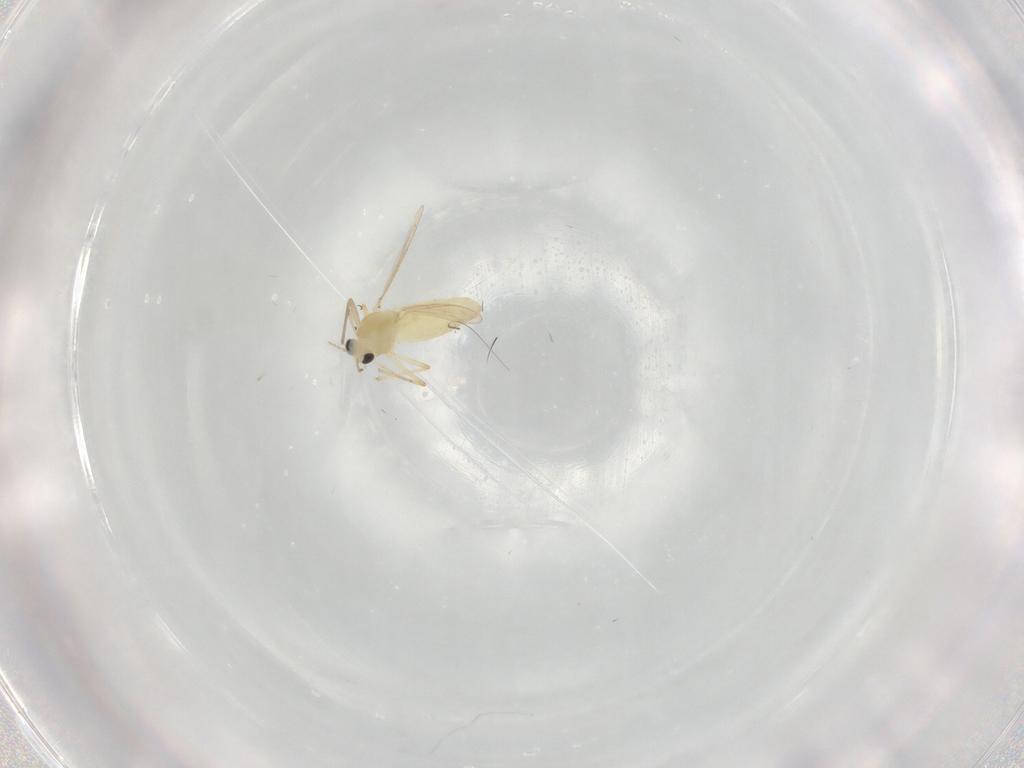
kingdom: Animalia
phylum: Arthropoda
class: Insecta
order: Diptera
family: Chironomidae
